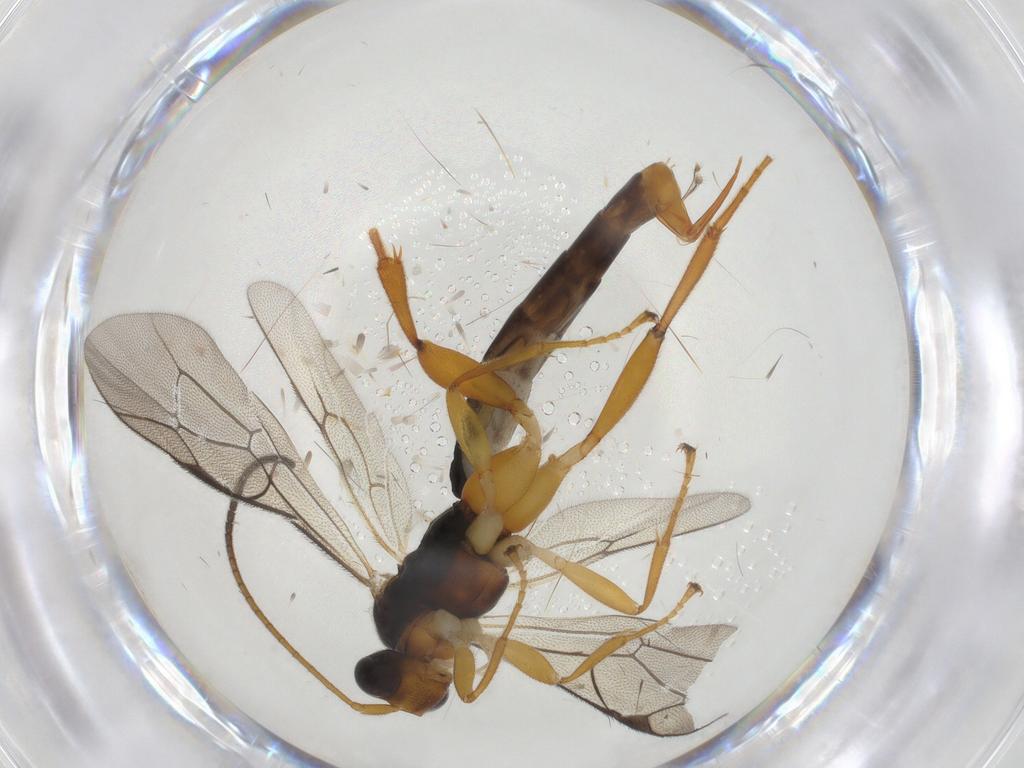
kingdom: Animalia
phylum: Arthropoda
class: Insecta
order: Hymenoptera
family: Ichneumonidae
